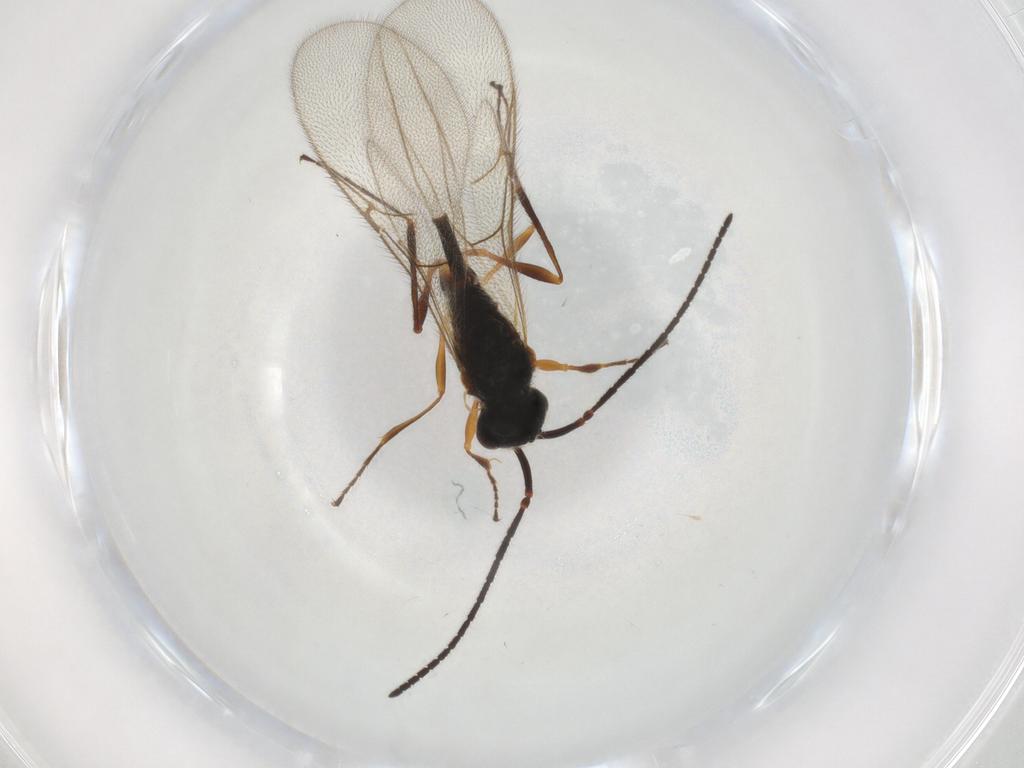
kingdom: Animalia
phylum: Arthropoda
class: Insecta
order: Hymenoptera
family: Diapriidae
